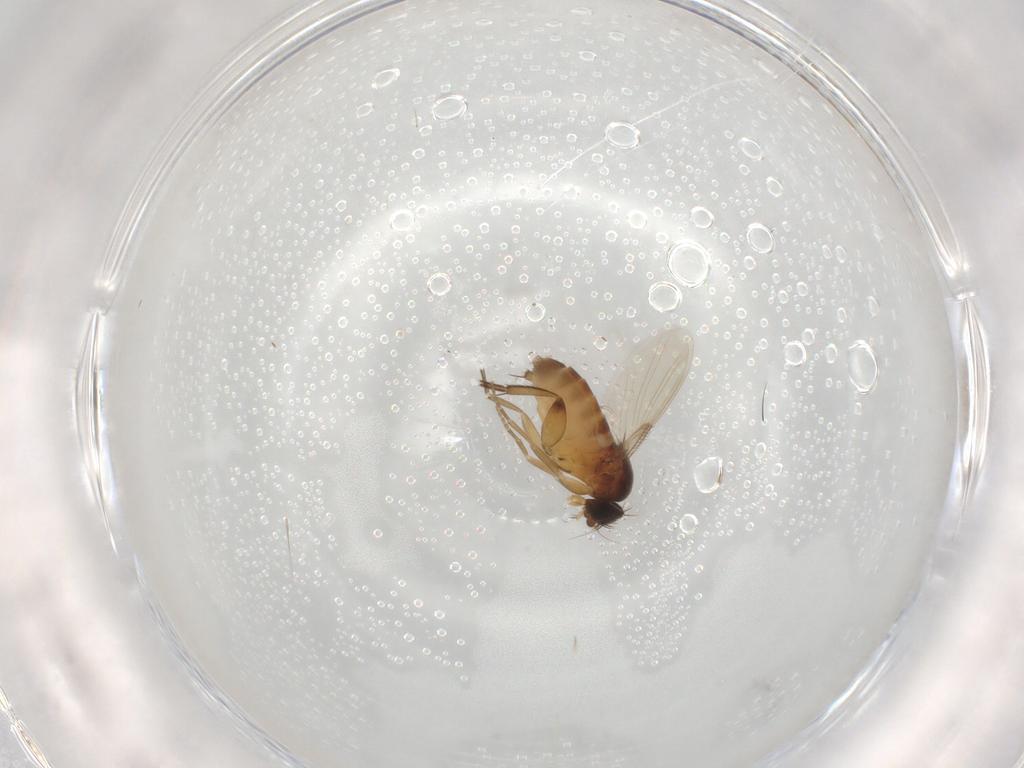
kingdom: Animalia
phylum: Arthropoda
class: Insecta
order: Diptera
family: Phoridae
